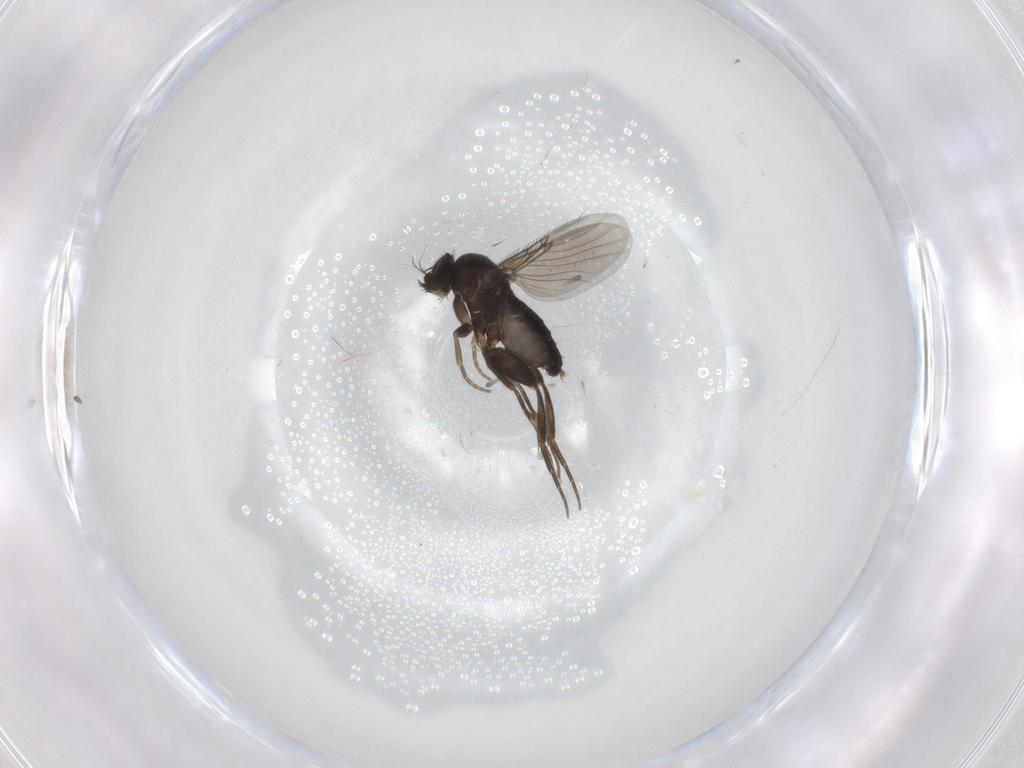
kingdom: Animalia
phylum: Arthropoda
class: Insecta
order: Diptera
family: Phoridae
